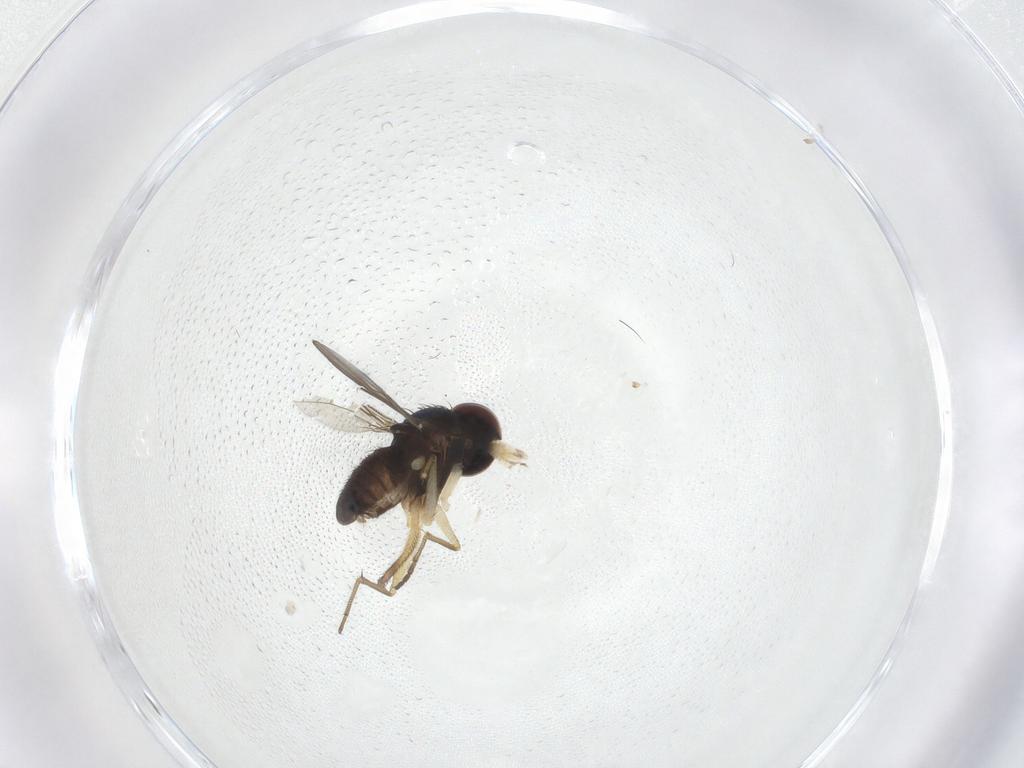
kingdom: Animalia
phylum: Arthropoda
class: Insecta
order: Diptera
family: Dolichopodidae
